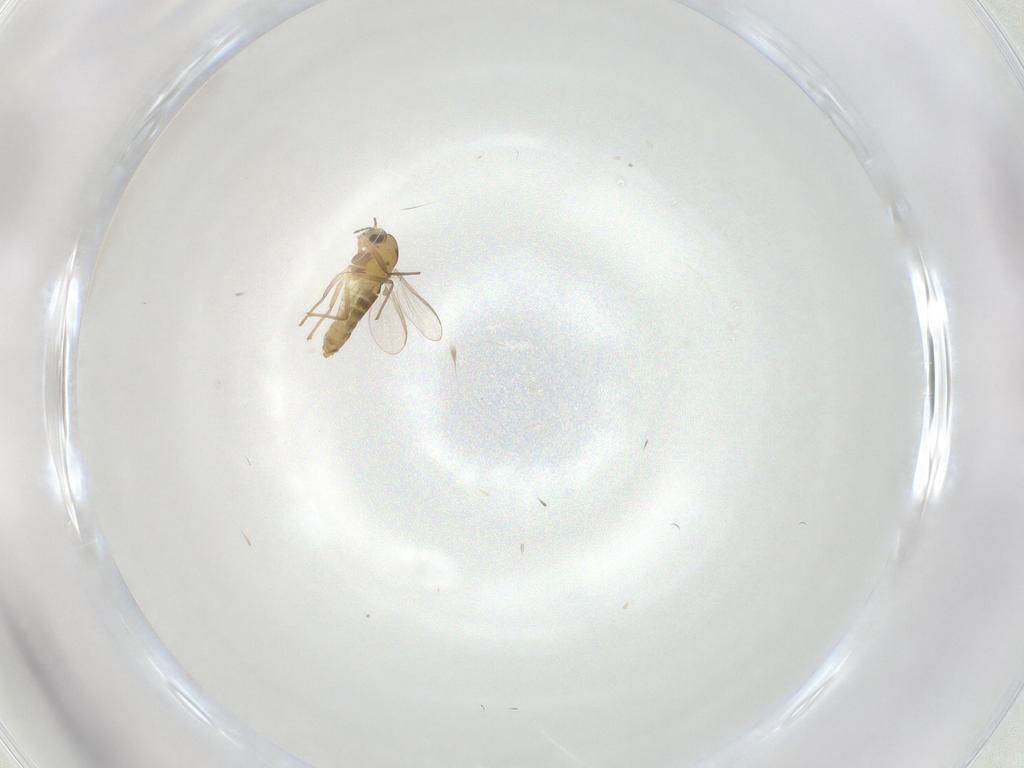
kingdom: Animalia
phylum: Arthropoda
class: Insecta
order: Diptera
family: Chironomidae
